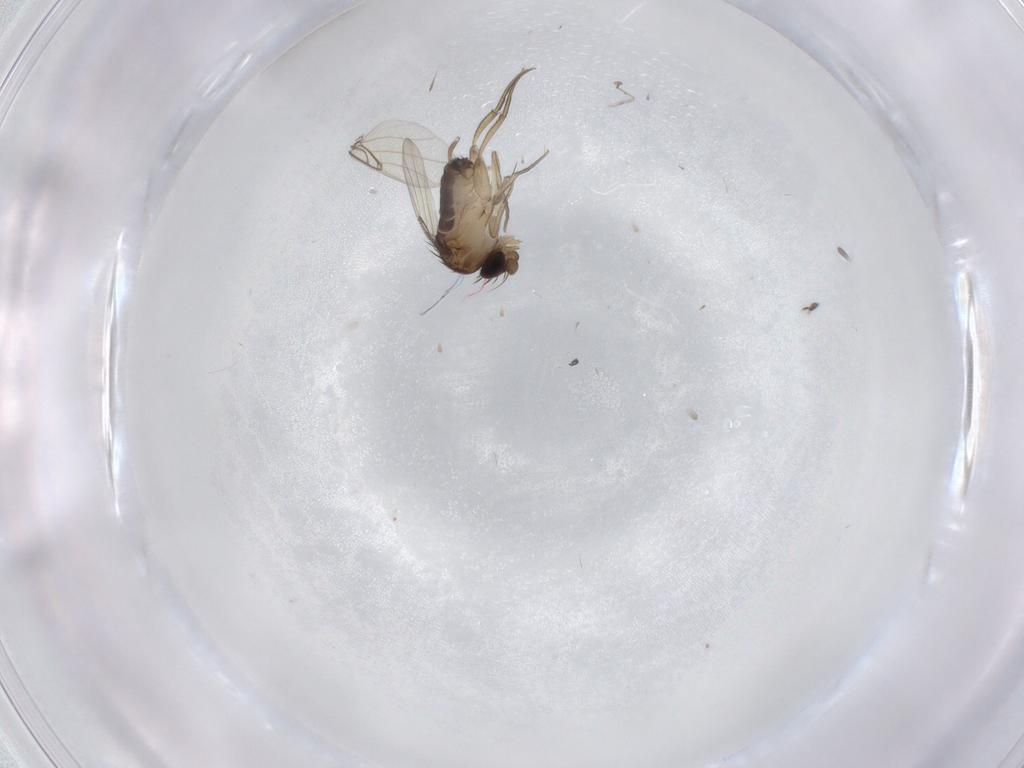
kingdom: Animalia
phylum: Arthropoda
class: Insecta
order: Diptera
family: Chironomidae
